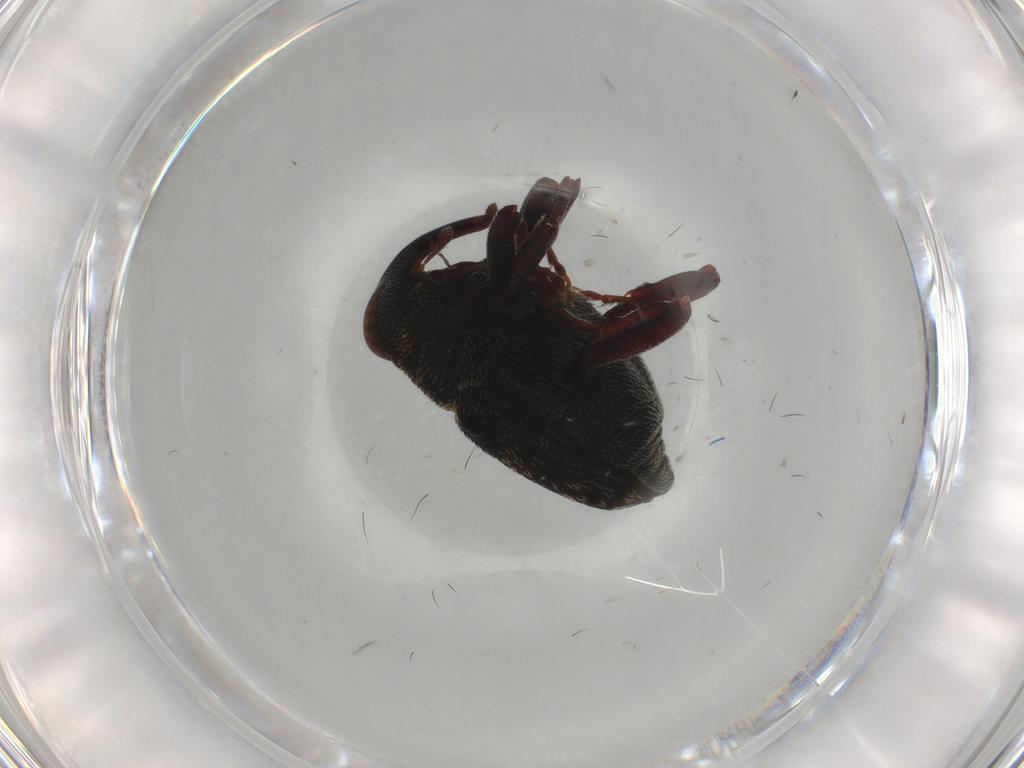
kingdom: Animalia
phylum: Arthropoda
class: Insecta
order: Coleoptera
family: Curculionidae
